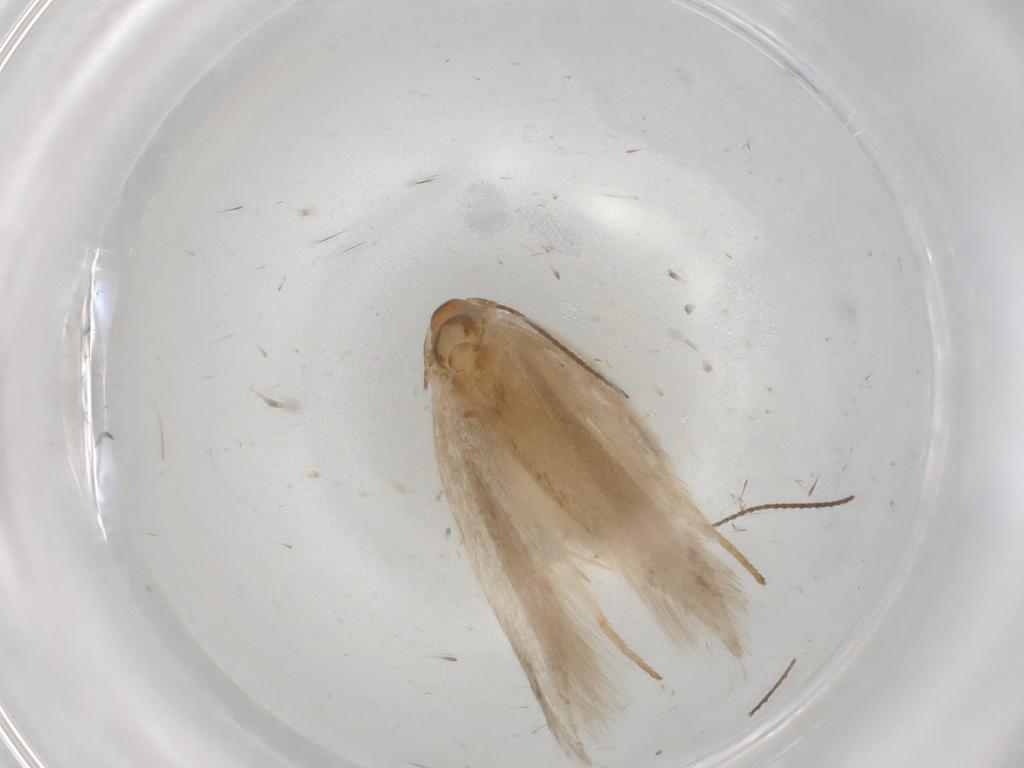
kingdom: Animalia
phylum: Arthropoda
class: Insecta
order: Lepidoptera
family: Gelechiidae
